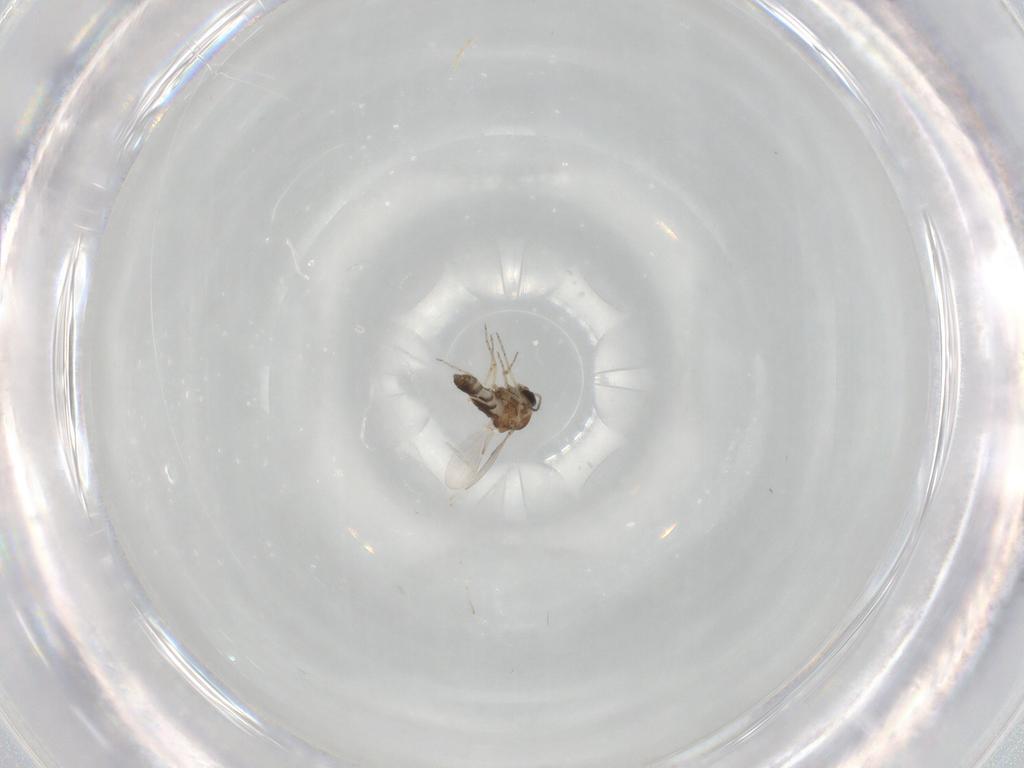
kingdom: Animalia
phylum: Arthropoda
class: Insecta
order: Diptera
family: Ceratopogonidae
